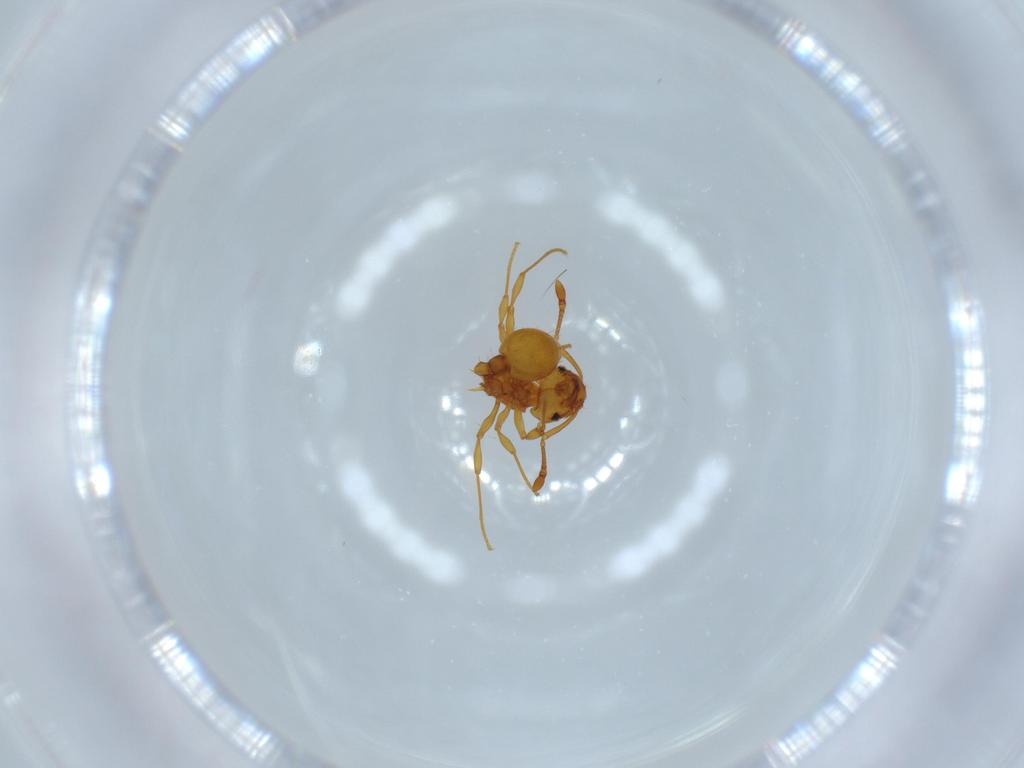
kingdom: Animalia
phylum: Arthropoda
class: Insecta
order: Hymenoptera
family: Formicidae
